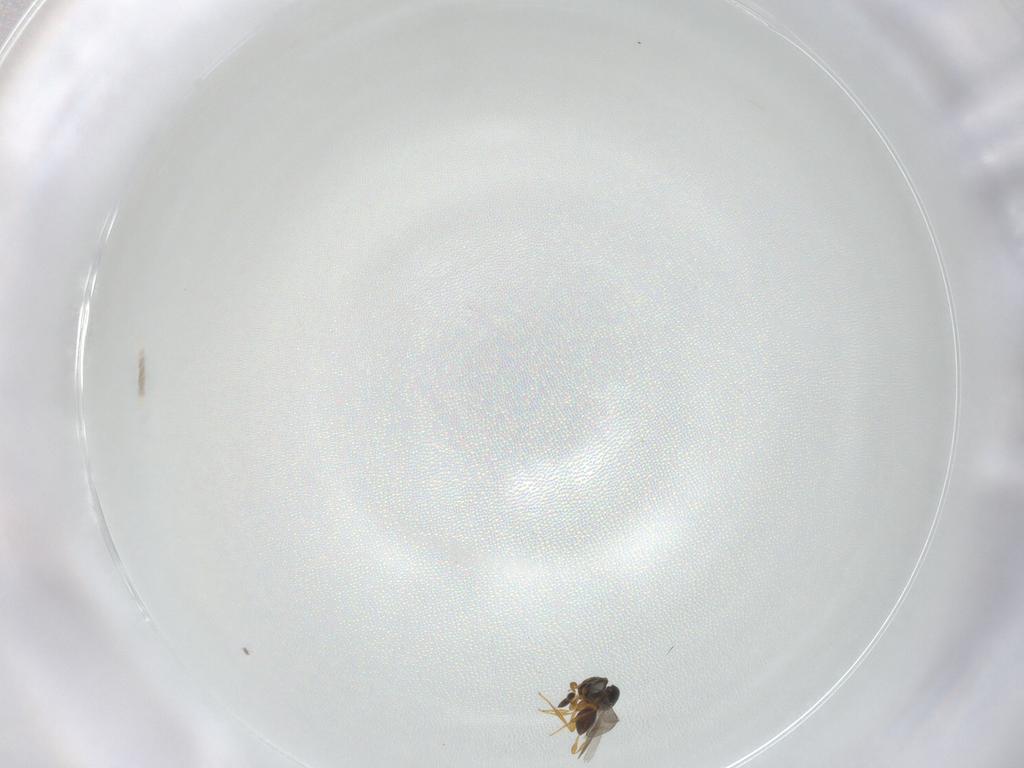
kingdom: Animalia
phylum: Arthropoda
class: Insecta
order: Hymenoptera
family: Platygastridae
